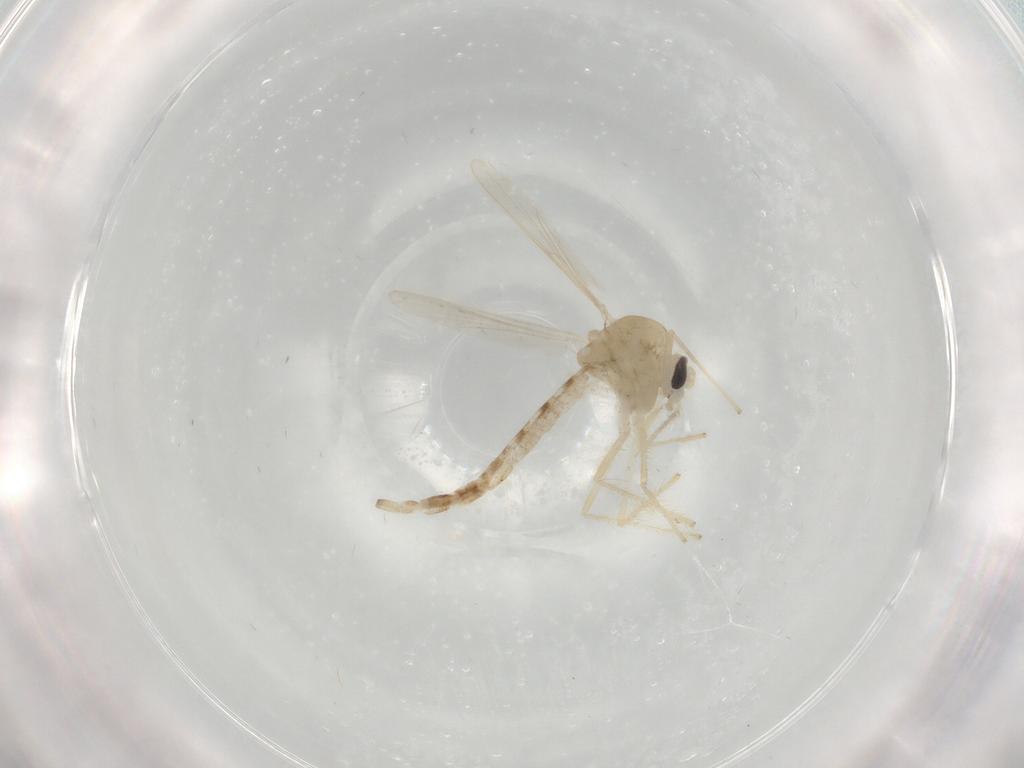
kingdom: Animalia
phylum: Arthropoda
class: Insecta
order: Diptera
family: Chironomidae
